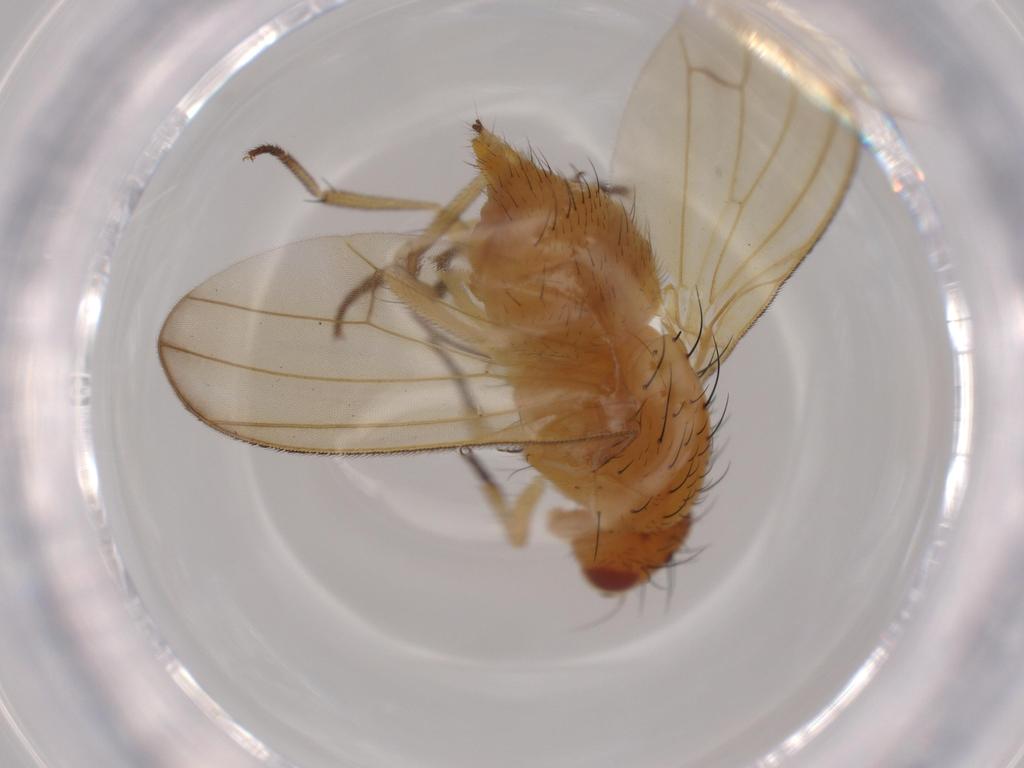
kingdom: Animalia
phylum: Arthropoda
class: Insecta
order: Diptera
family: Lauxaniidae
